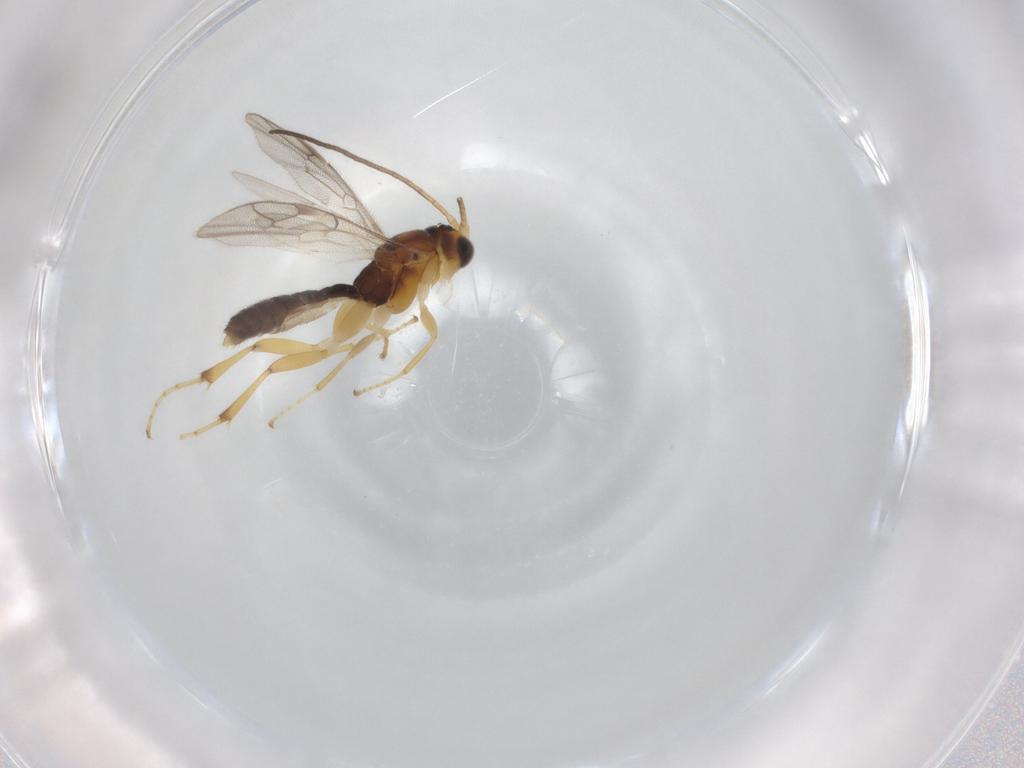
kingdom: Animalia
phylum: Arthropoda
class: Insecta
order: Hymenoptera
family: Ichneumonidae
